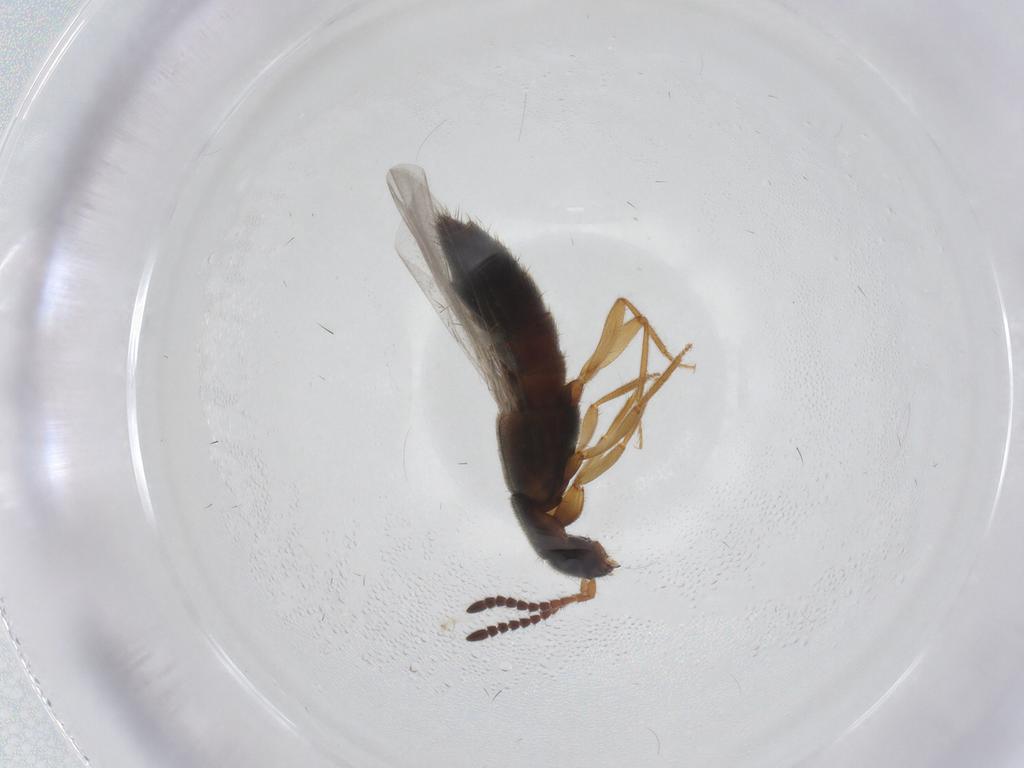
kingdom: Animalia
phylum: Arthropoda
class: Insecta
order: Coleoptera
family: Staphylinidae
